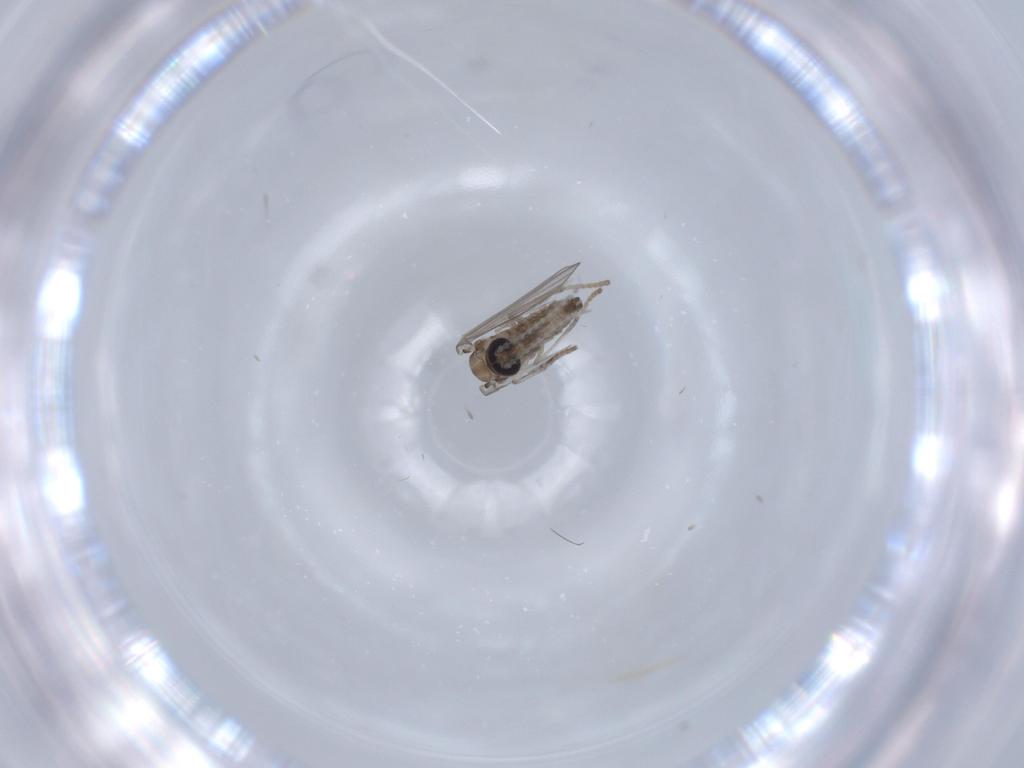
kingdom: Animalia
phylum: Arthropoda
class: Insecta
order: Diptera
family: Psychodidae
